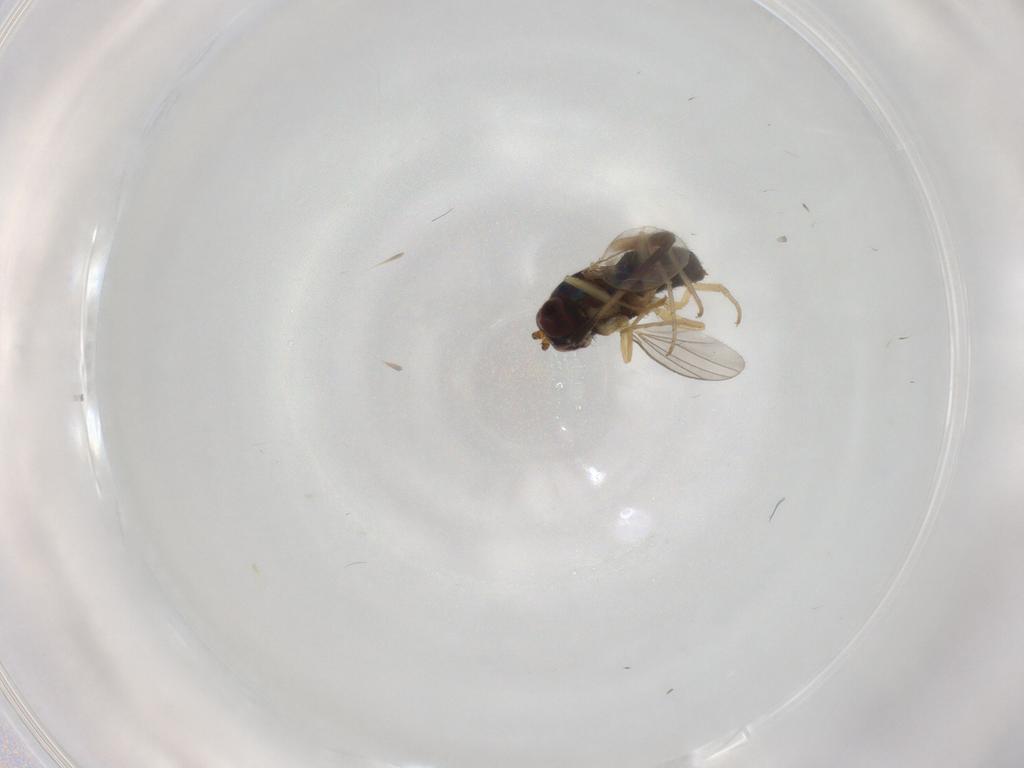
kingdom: Animalia
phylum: Arthropoda
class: Insecta
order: Diptera
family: Dolichopodidae
